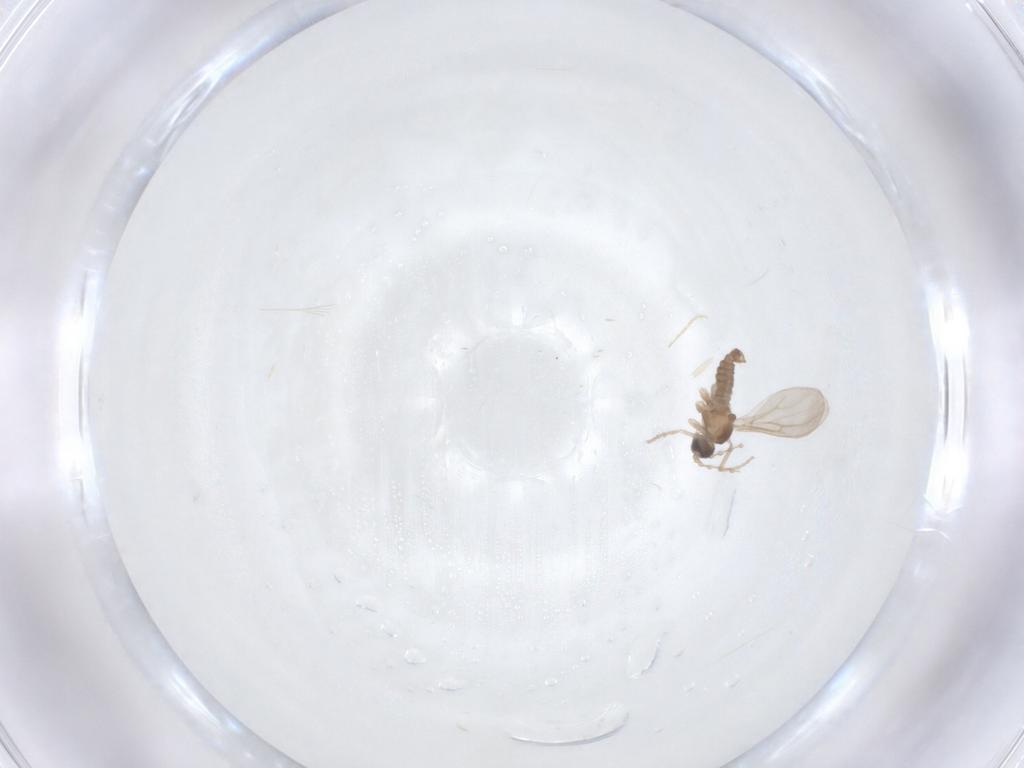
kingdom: Animalia
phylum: Arthropoda
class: Insecta
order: Diptera
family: Cecidomyiidae
